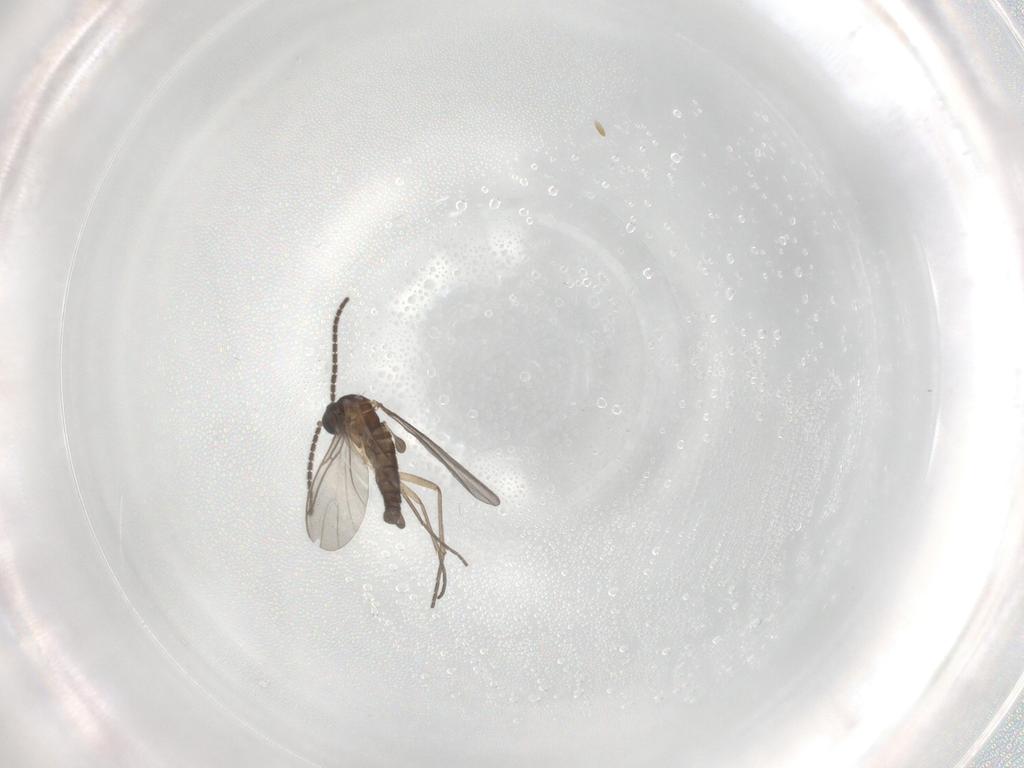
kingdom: Animalia
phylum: Arthropoda
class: Insecta
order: Diptera
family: Sciaridae
